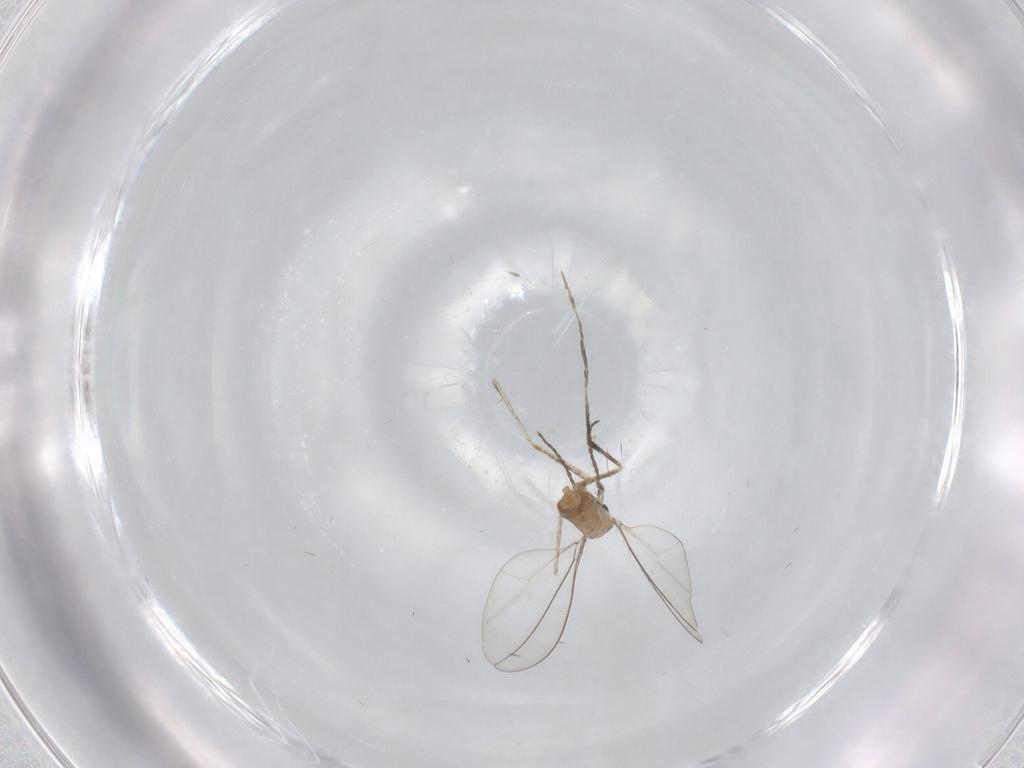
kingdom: Animalia
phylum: Arthropoda
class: Insecta
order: Diptera
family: Cecidomyiidae
